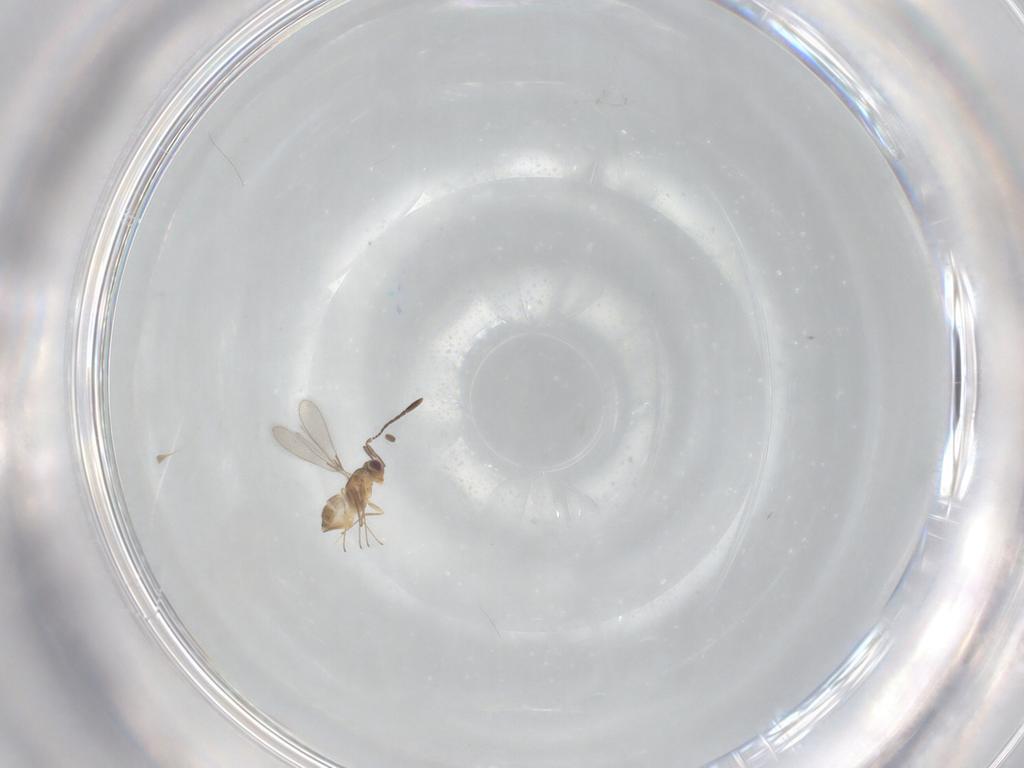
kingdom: Animalia
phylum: Arthropoda
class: Insecta
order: Hymenoptera
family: Mymaridae
